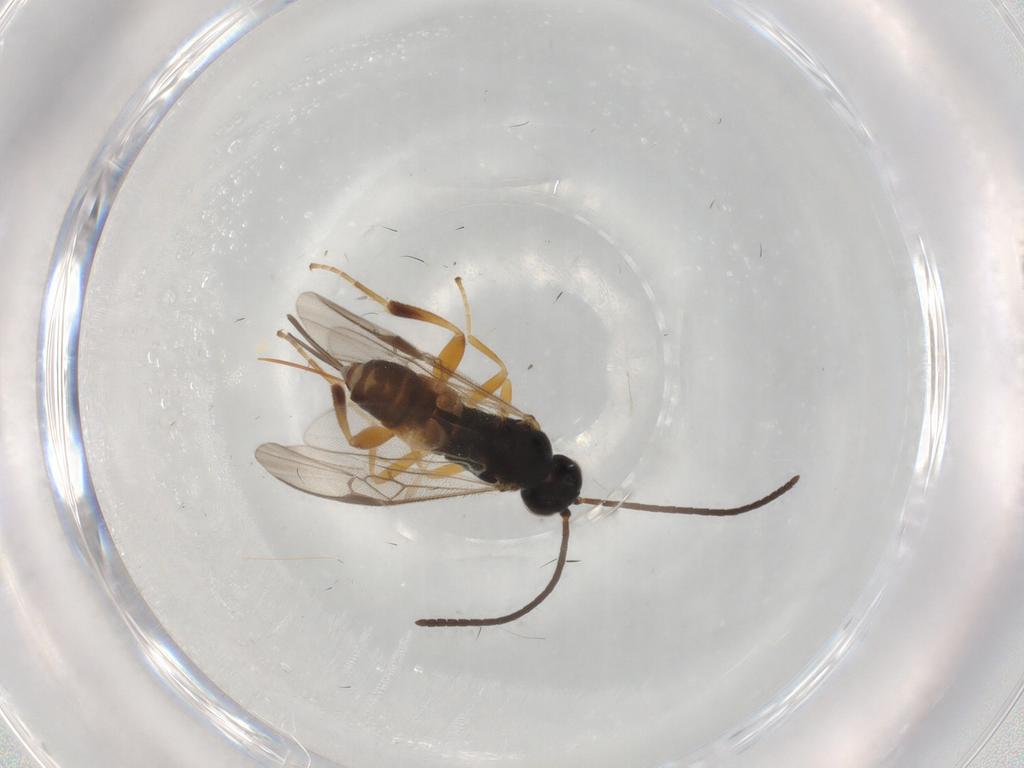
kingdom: Animalia
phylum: Arthropoda
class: Insecta
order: Hymenoptera
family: Braconidae
